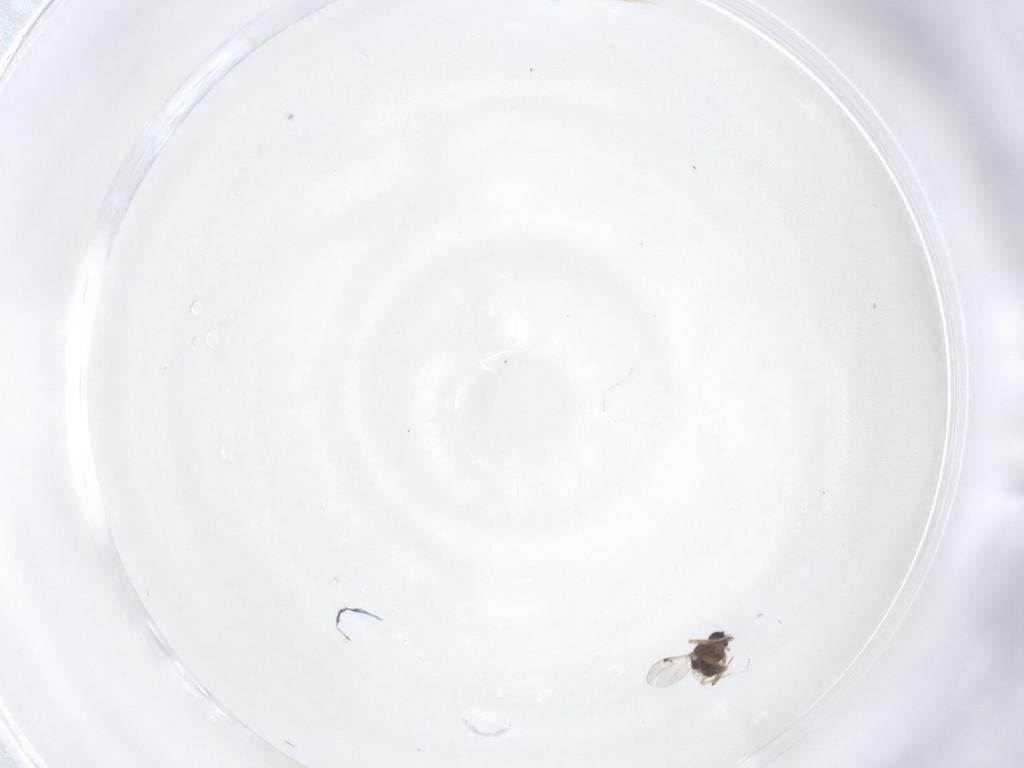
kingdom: Animalia
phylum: Arthropoda
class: Insecta
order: Diptera
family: Ceratopogonidae
